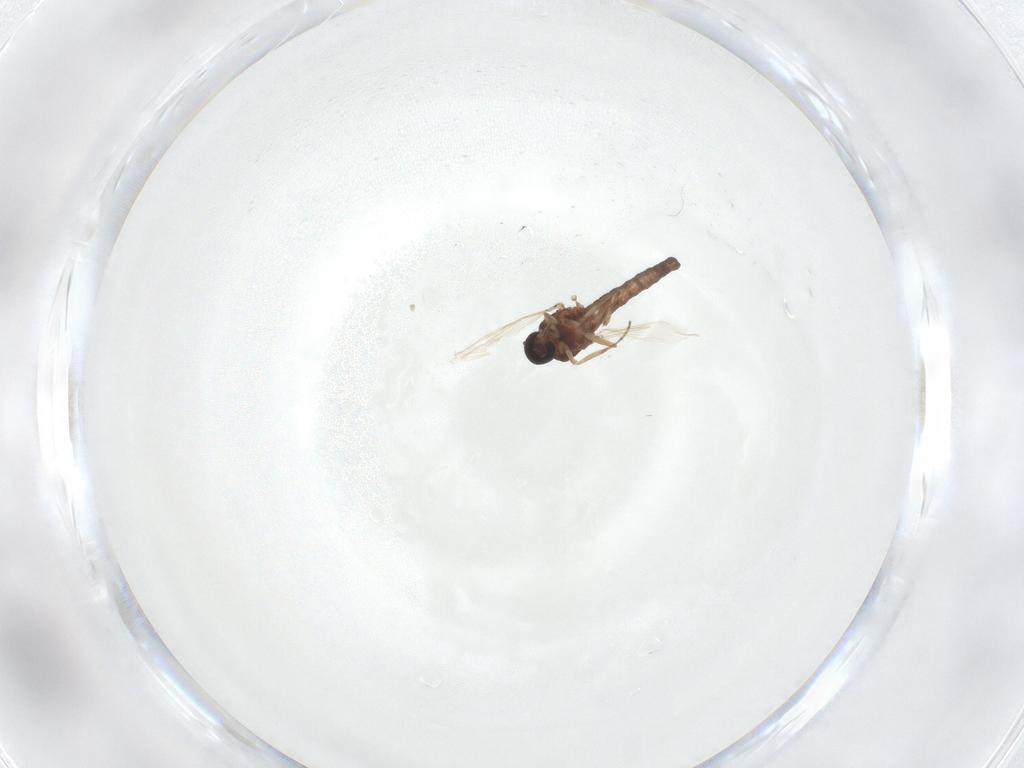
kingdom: Animalia
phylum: Arthropoda
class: Insecta
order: Diptera
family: Ceratopogonidae
